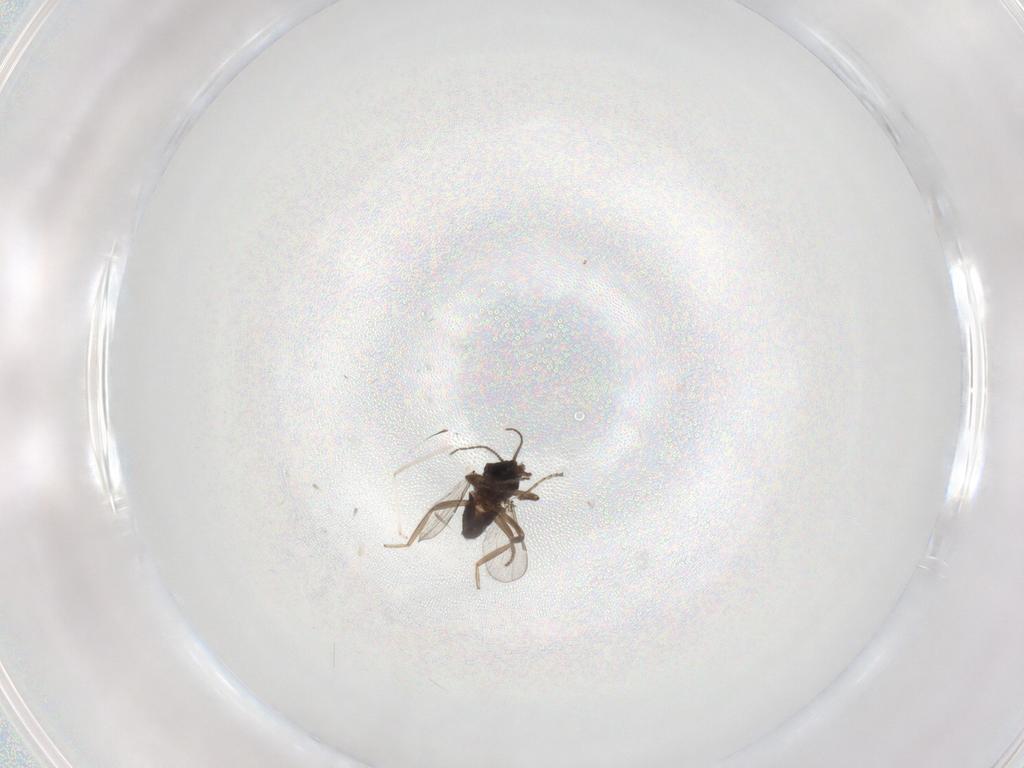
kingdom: Animalia
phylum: Arthropoda
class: Insecta
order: Diptera
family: Ceratopogonidae
